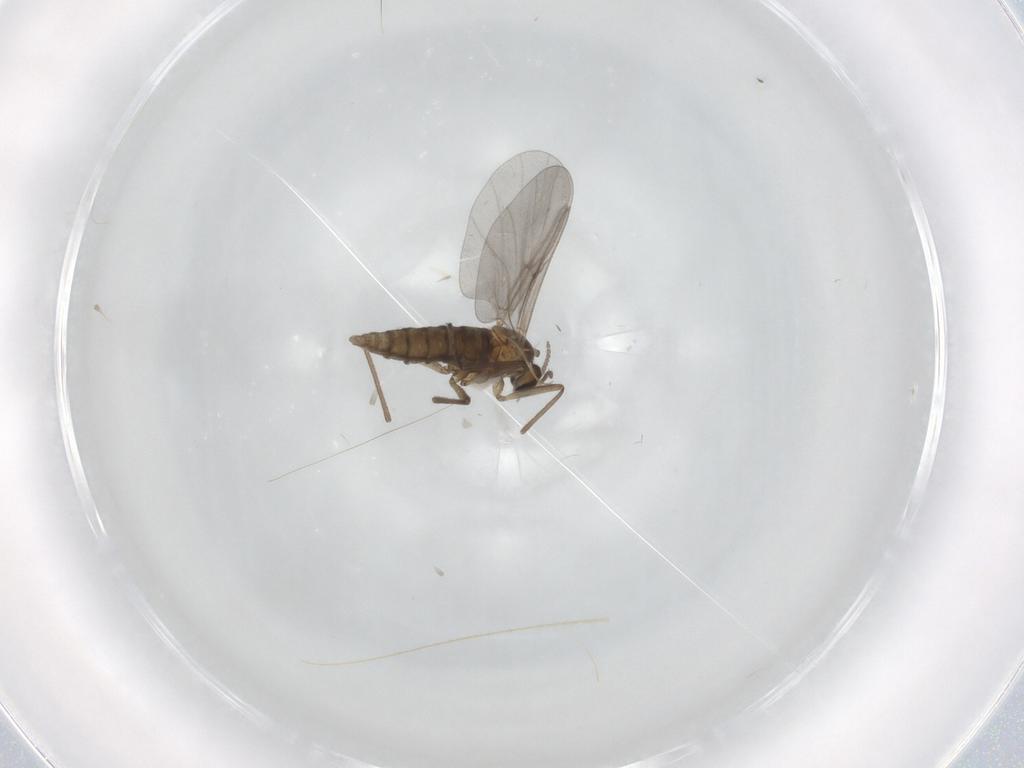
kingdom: Animalia
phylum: Arthropoda
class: Insecta
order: Diptera
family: Cecidomyiidae
